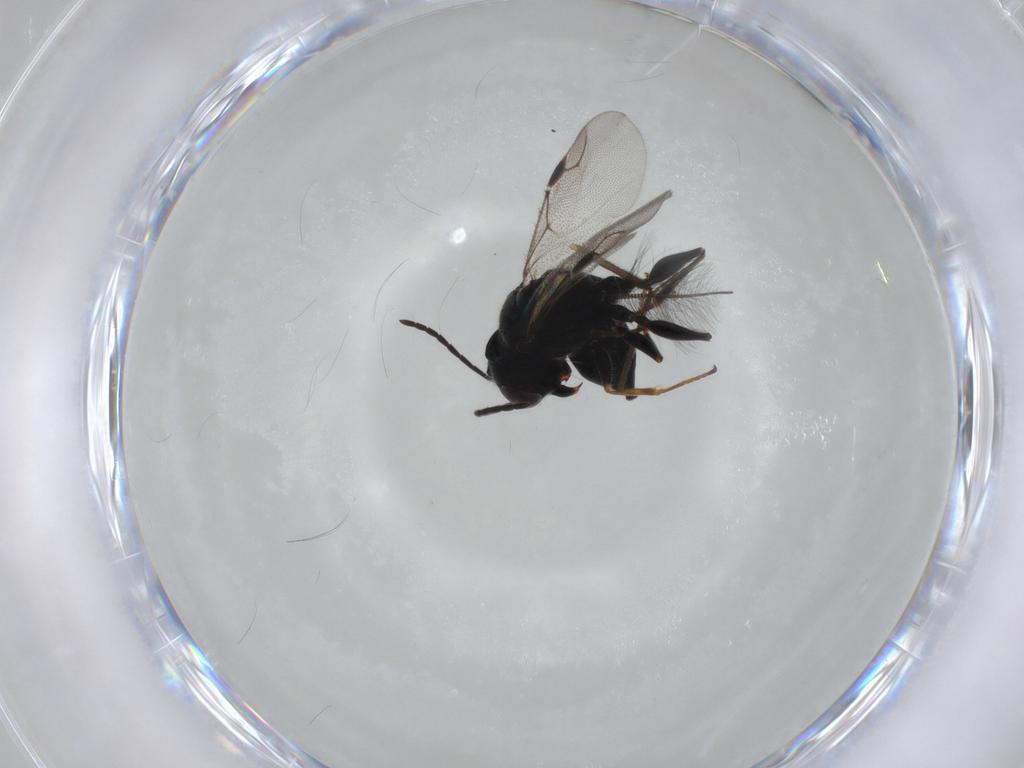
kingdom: Animalia
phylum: Arthropoda
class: Insecta
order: Hymenoptera
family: Dryinidae
